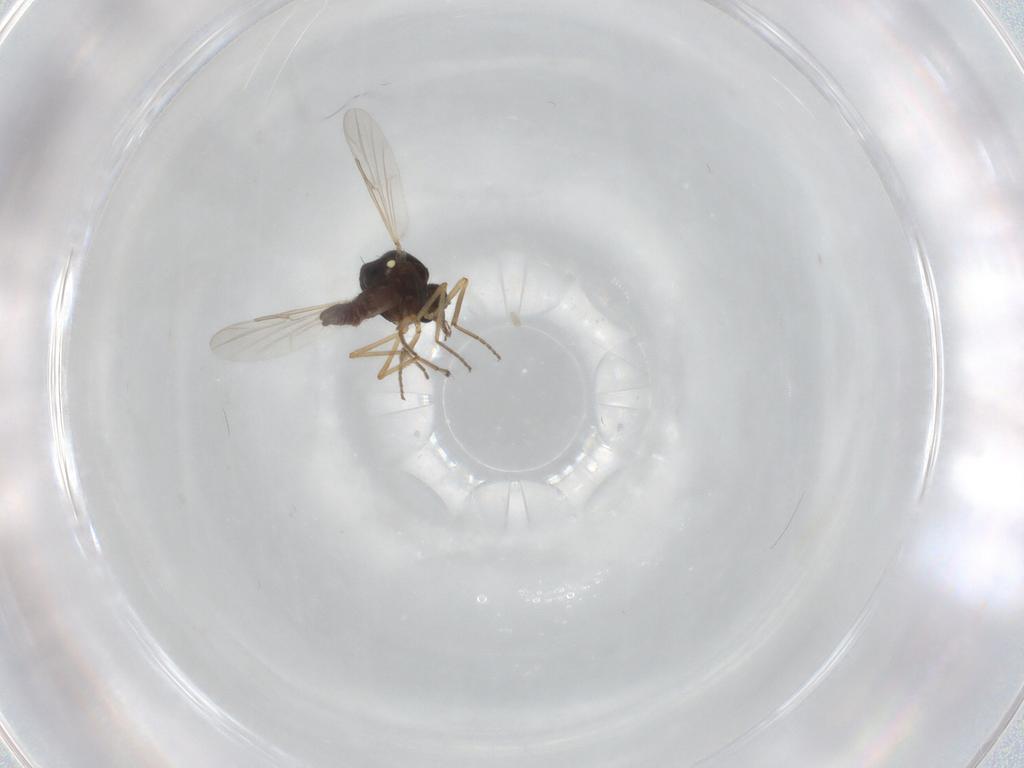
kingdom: Animalia
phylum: Arthropoda
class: Insecta
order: Diptera
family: Ceratopogonidae
